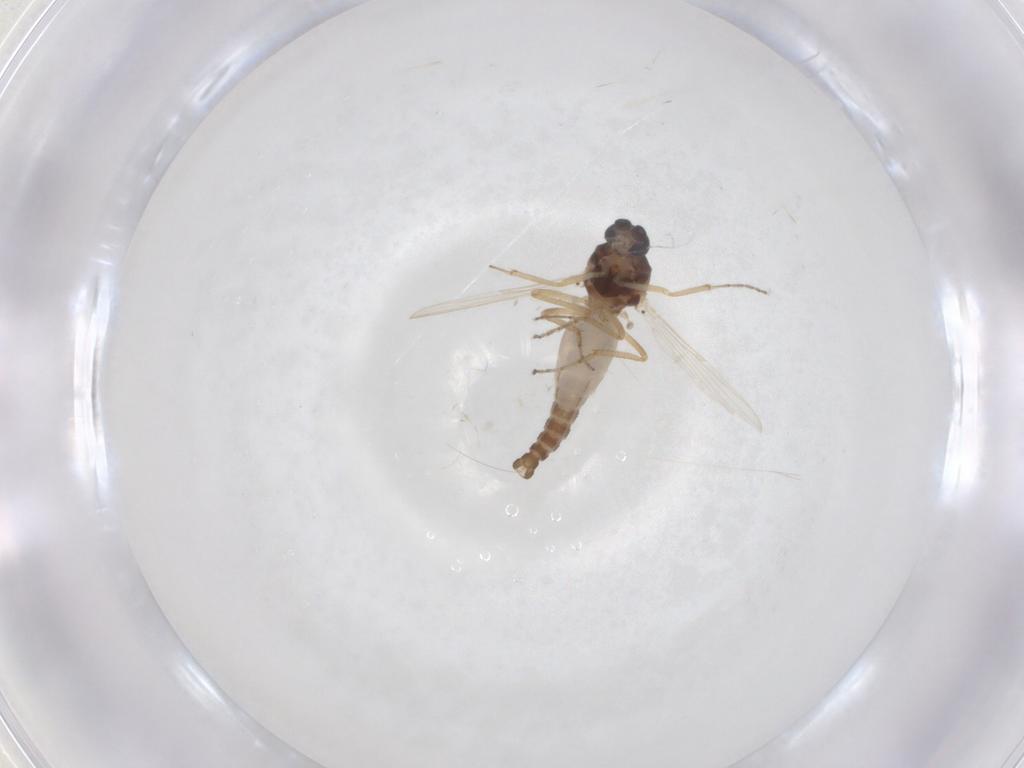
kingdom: Animalia
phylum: Arthropoda
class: Insecta
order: Diptera
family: Ceratopogonidae
